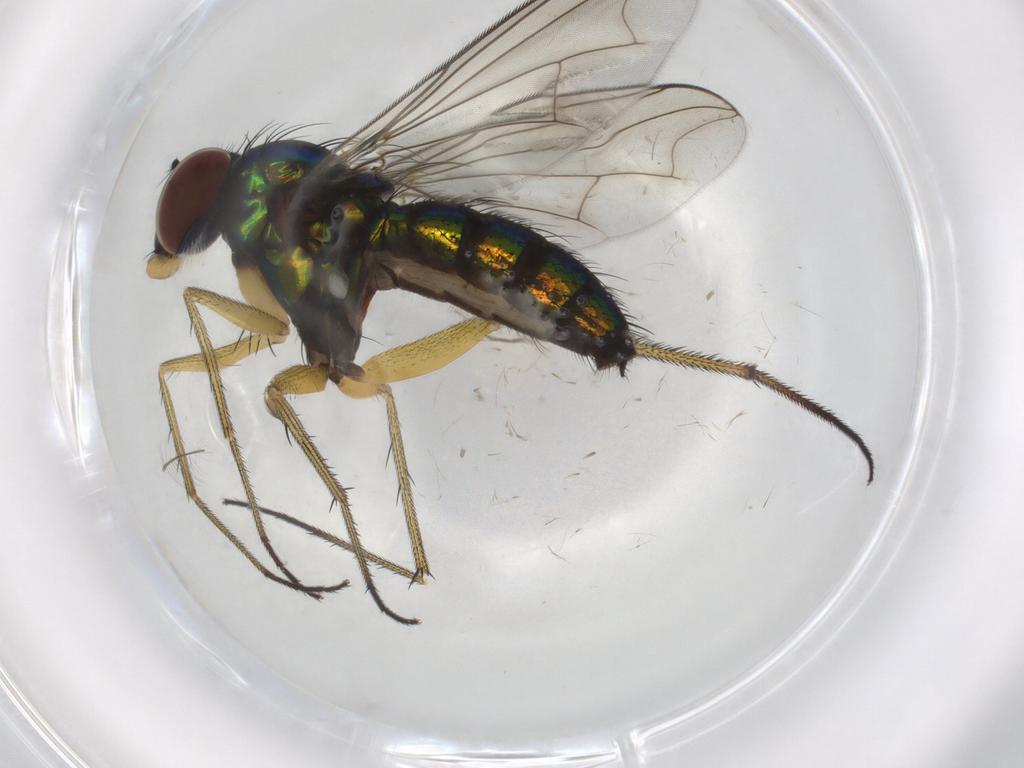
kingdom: Animalia
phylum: Arthropoda
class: Insecta
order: Diptera
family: Dolichopodidae
